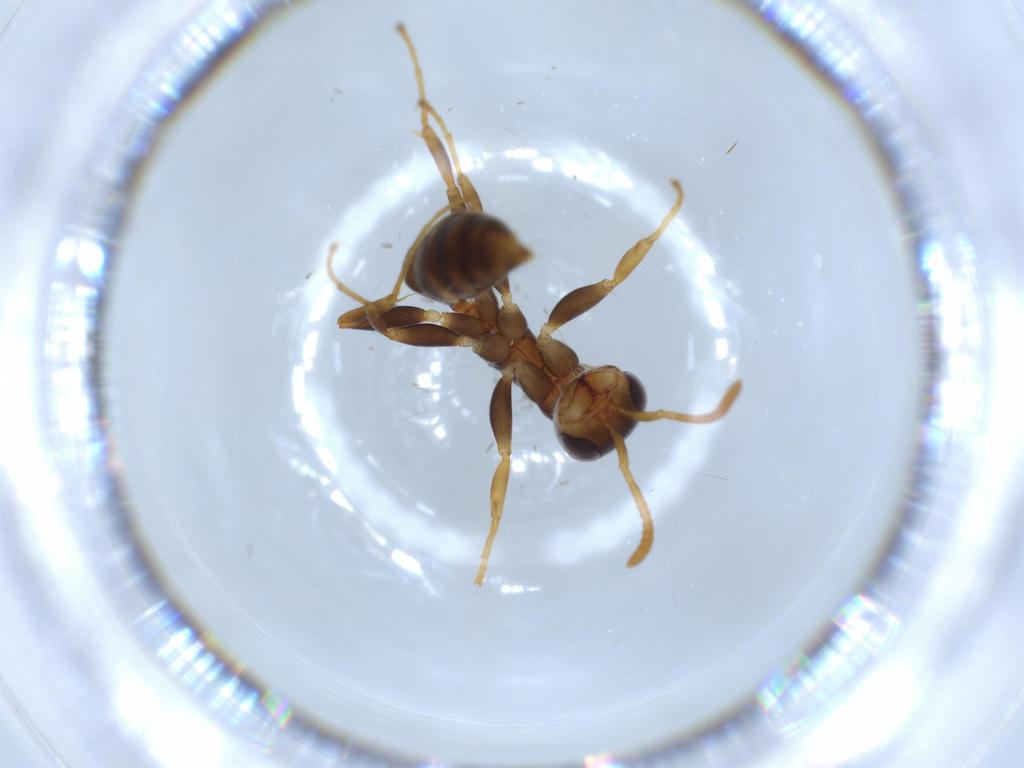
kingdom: Animalia
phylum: Arthropoda
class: Insecta
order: Hymenoptera
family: Formicidae
